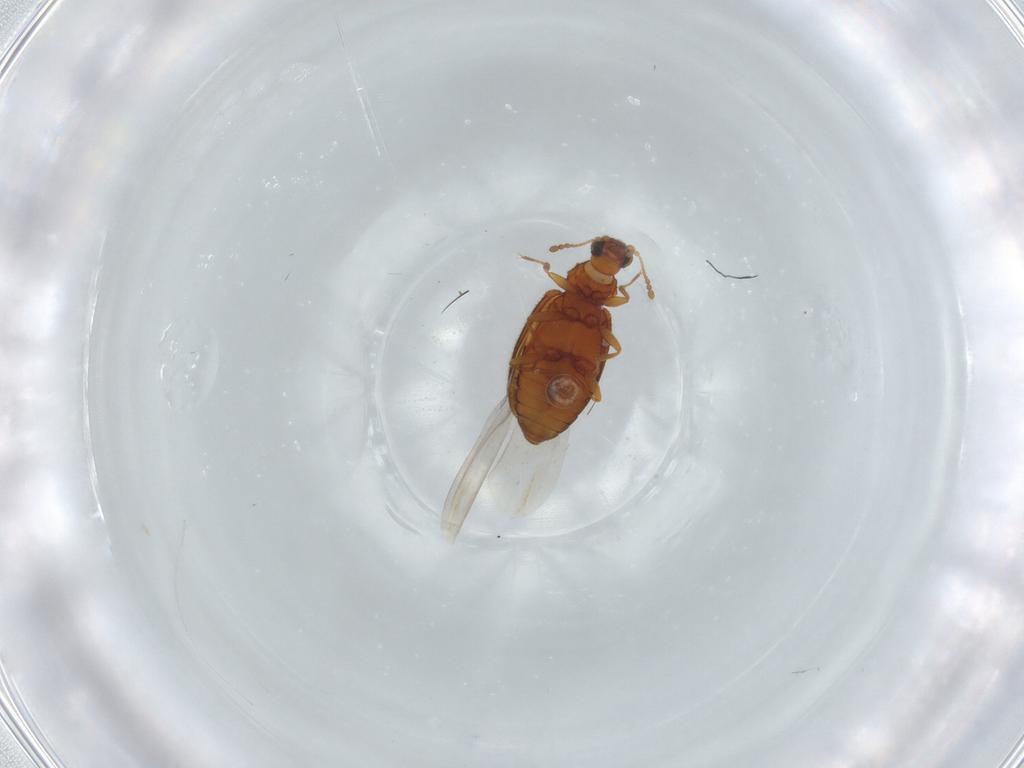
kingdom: Animalia
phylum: Arthropoda
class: Insecta
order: Coleoptera
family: Latridiidae
